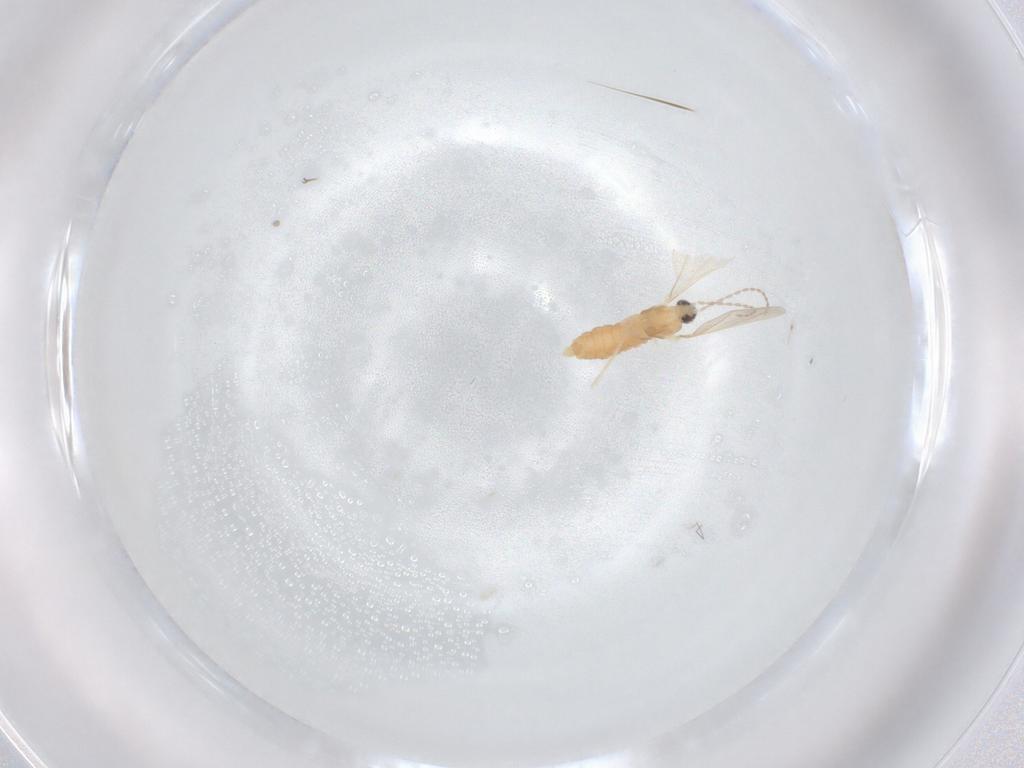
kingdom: Animalia
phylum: Arthropoda
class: Insecta
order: Diptera
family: Cecidomyiidae
